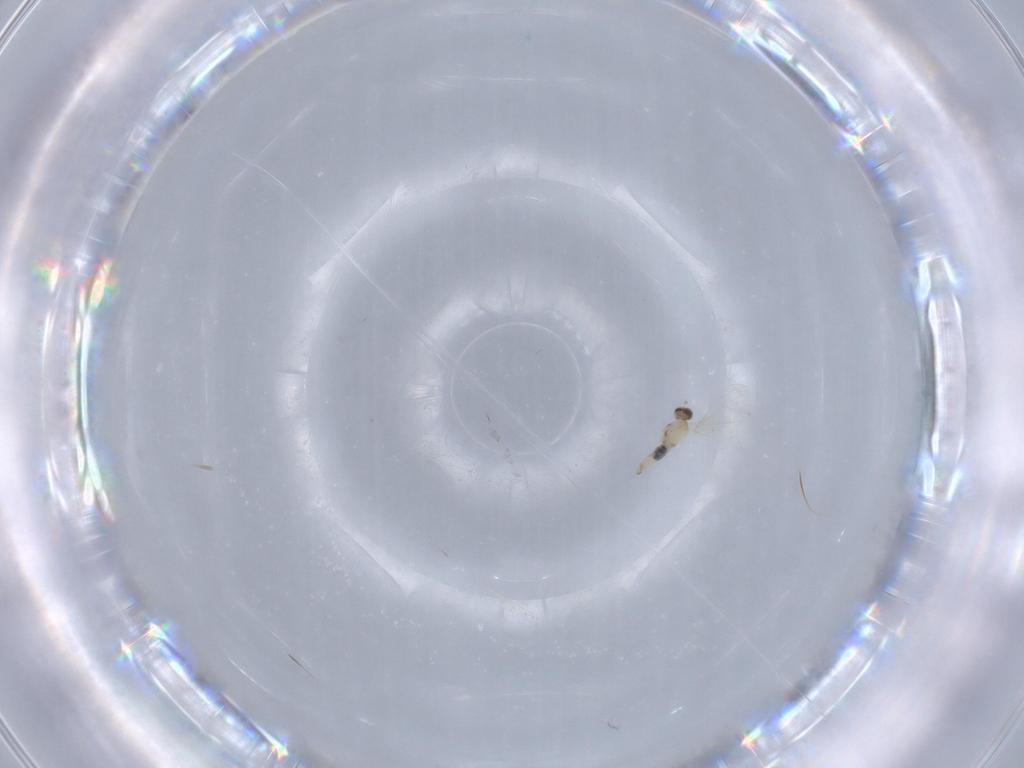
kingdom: Animalia
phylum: Arthropoda
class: Insecta
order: Diptera
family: Cecidomyiidae
